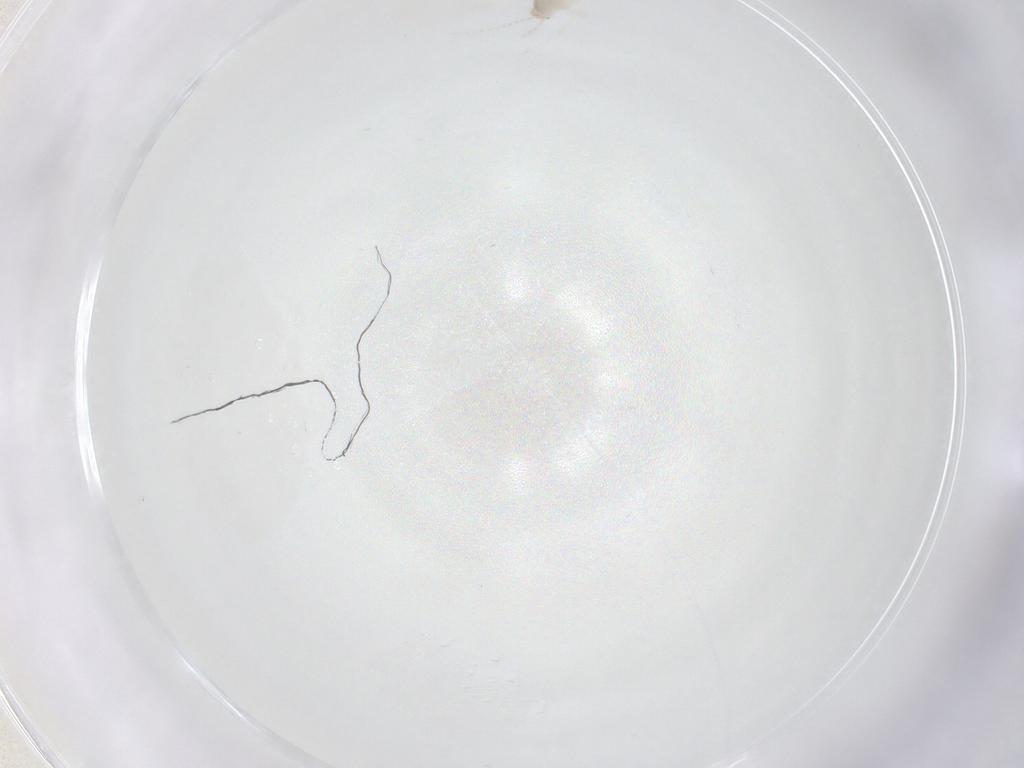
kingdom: Animalia
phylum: Arthropoda
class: Insecta
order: Diptera
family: Cecidomyiidae
